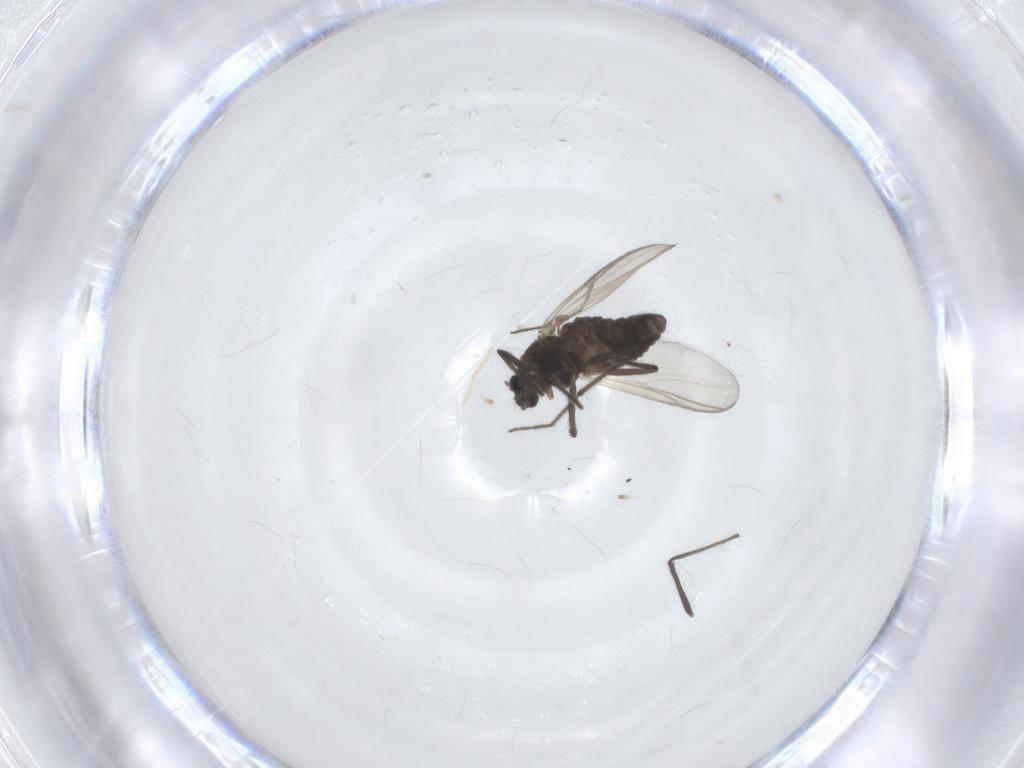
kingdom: Animalia
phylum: Arthropoda
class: Insecta
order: Diptera
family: Chironomidae
